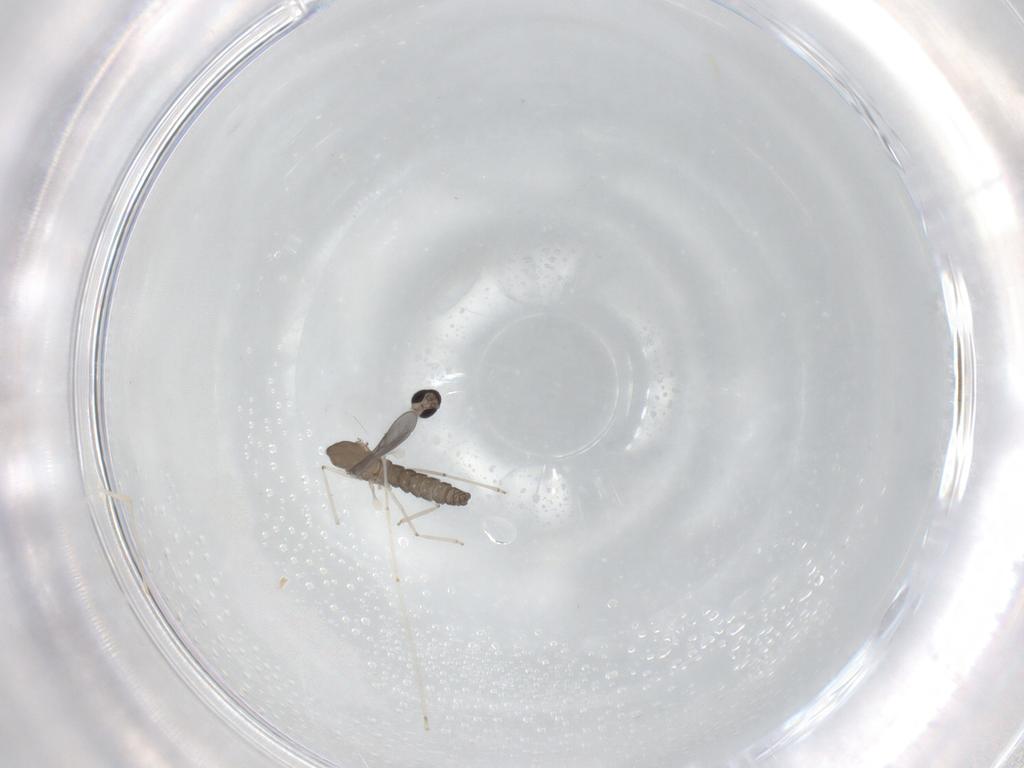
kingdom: Animalia
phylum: Arthropoda
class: Insecta
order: Diptera
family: Cecidomyiidae
